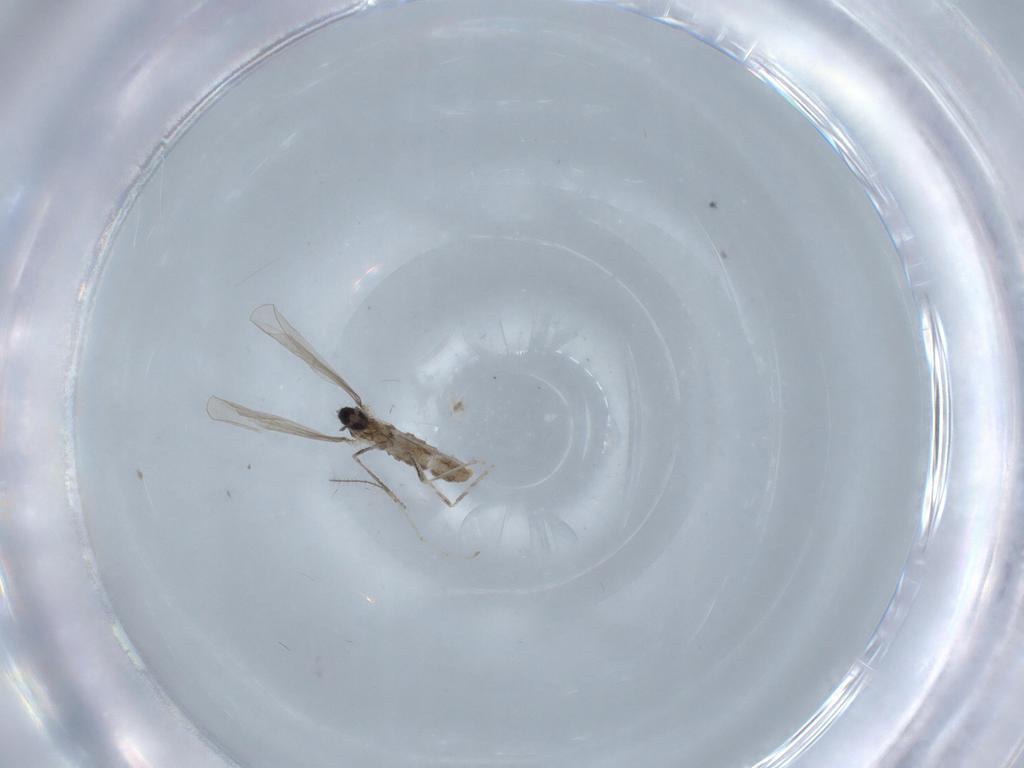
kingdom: Animalia
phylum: Arthropoda
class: Insecta
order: Diptera
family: Cecidomyiidae
